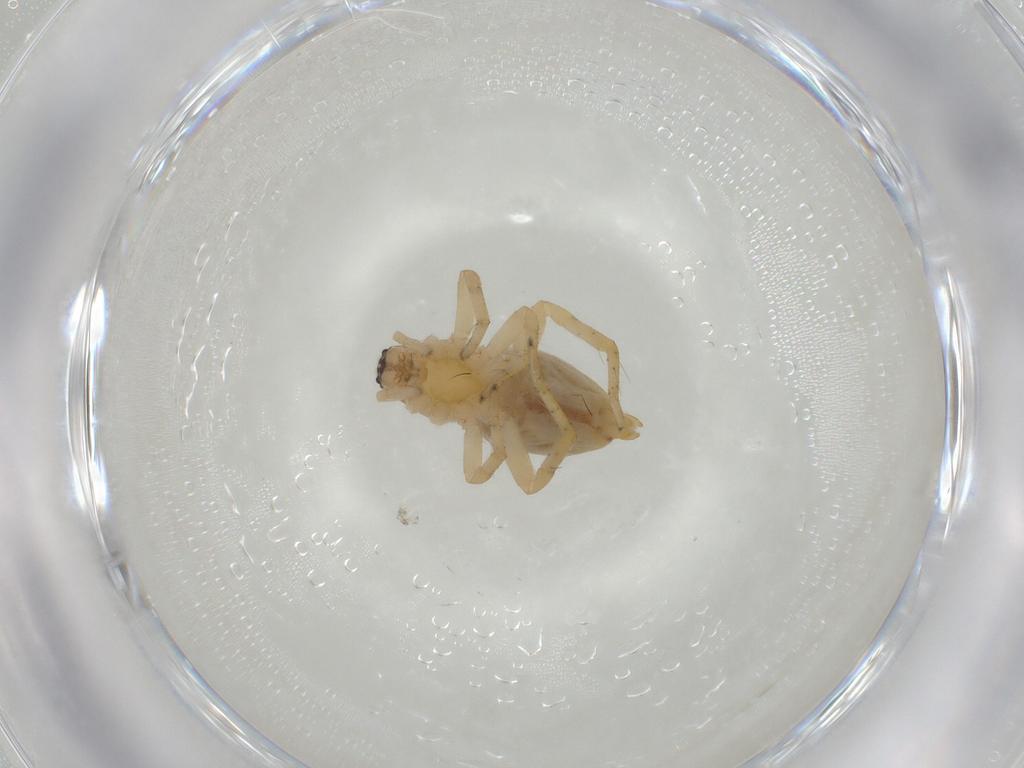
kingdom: Animalia
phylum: Arthropoda
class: Arachnida
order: Araneae
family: Clubionidae
